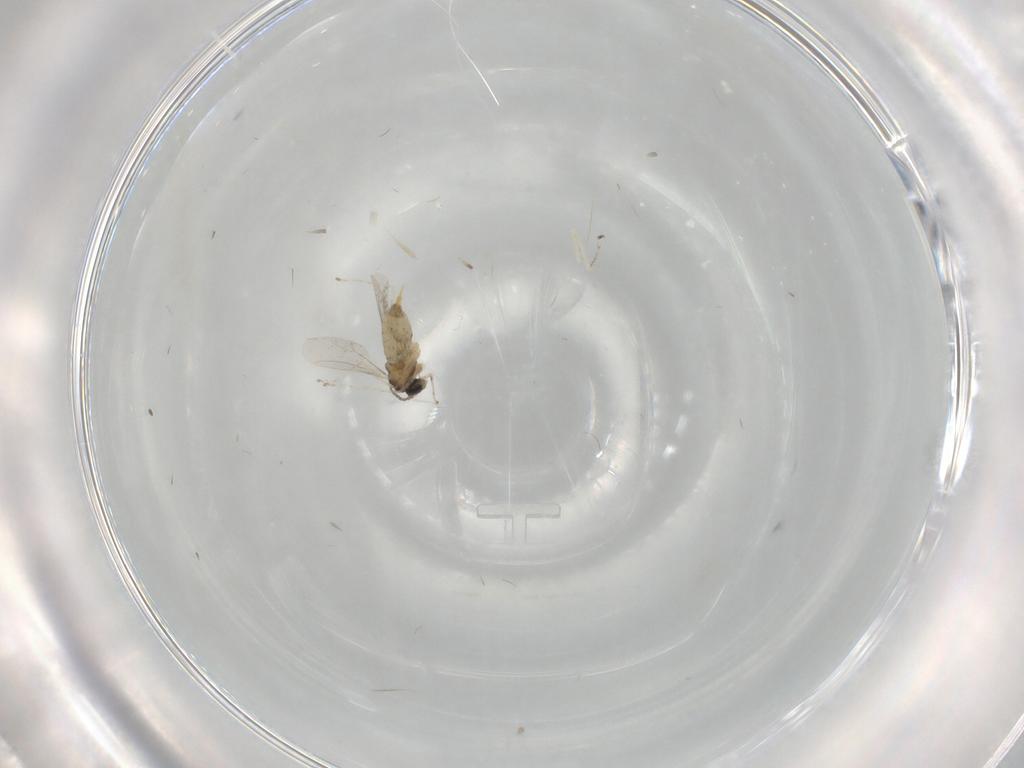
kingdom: Animalia
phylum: Arthropoda
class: Insecta
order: Diptera
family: Cecidomyiidae
